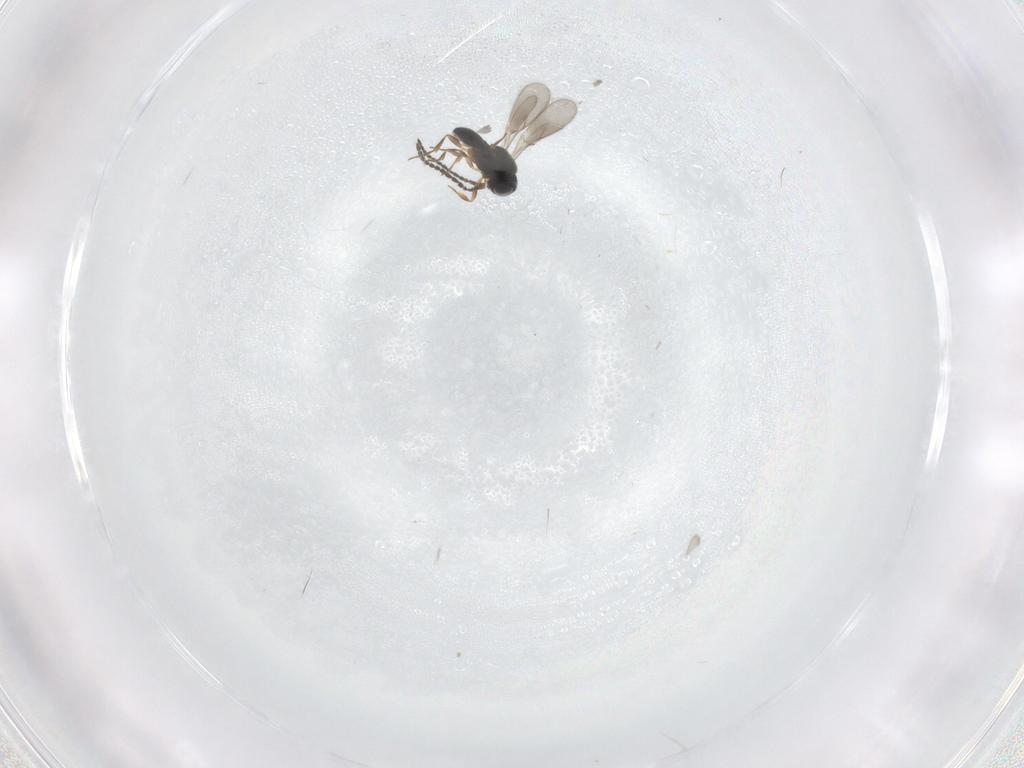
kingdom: Animalia
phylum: Arthropoda
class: Insecta
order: Hymenoptera
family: Scelionidae
